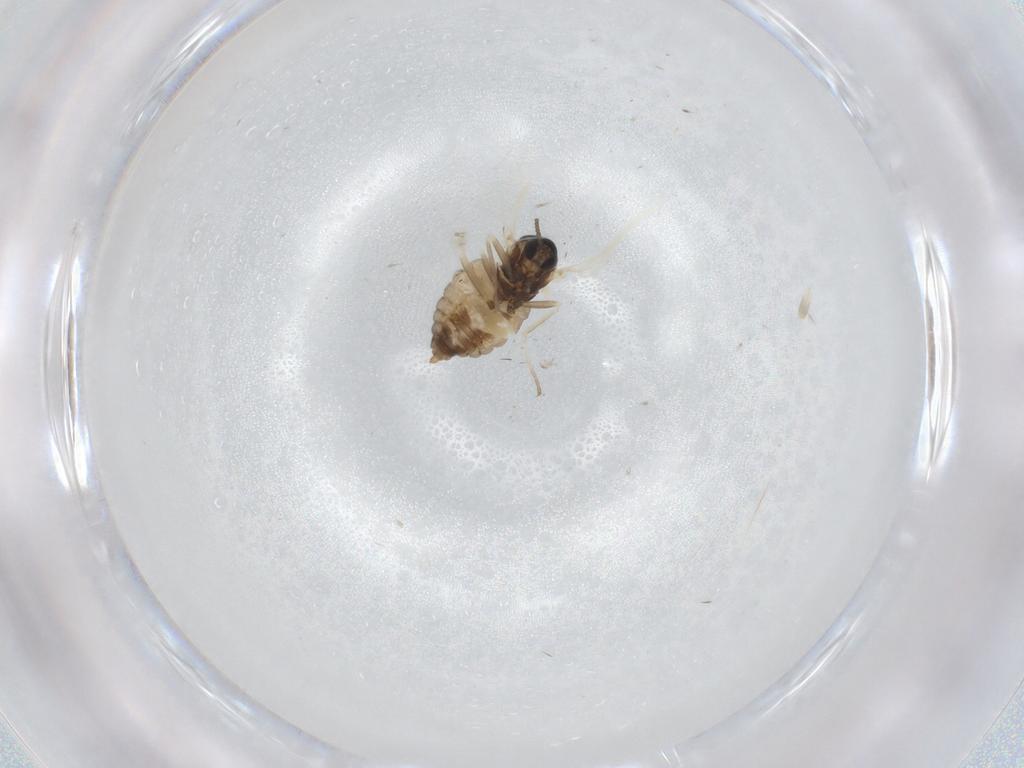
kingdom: Animalia
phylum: Arthropoda
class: Insecta
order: Diptera
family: Cecidomyiidae
